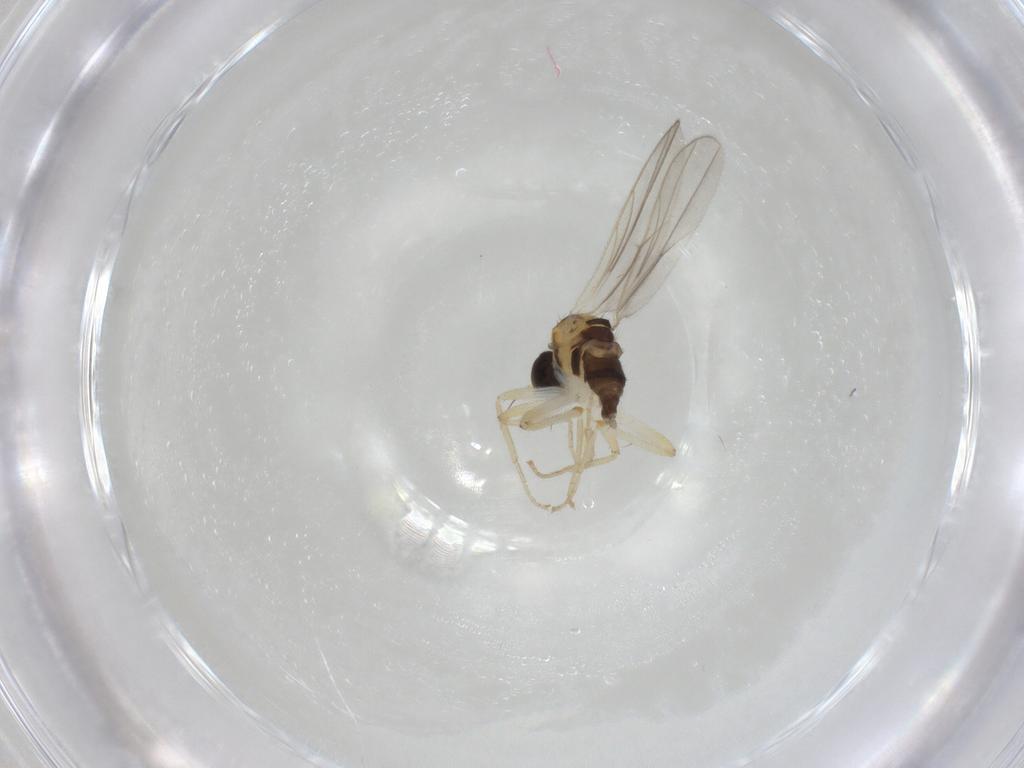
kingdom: Animalia
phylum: Arthropoda
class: Insecta
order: Diptera
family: Hybotidae
